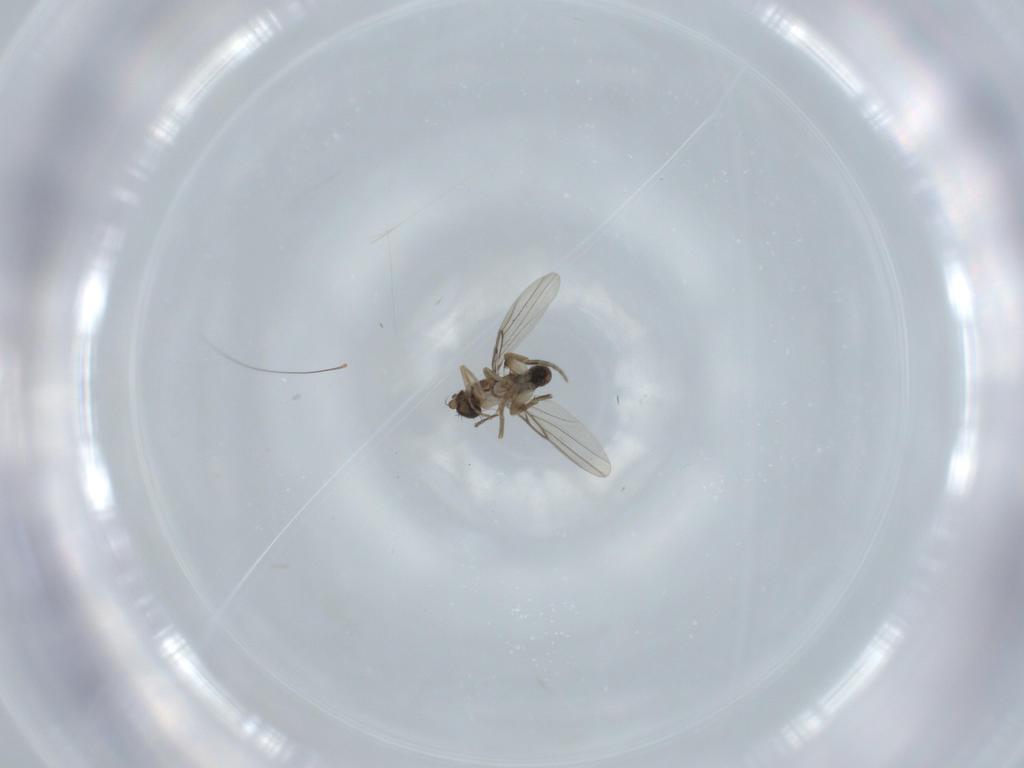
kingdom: Animalia
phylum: Arthropoda
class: Insecta
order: Diptera
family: Phoridae
